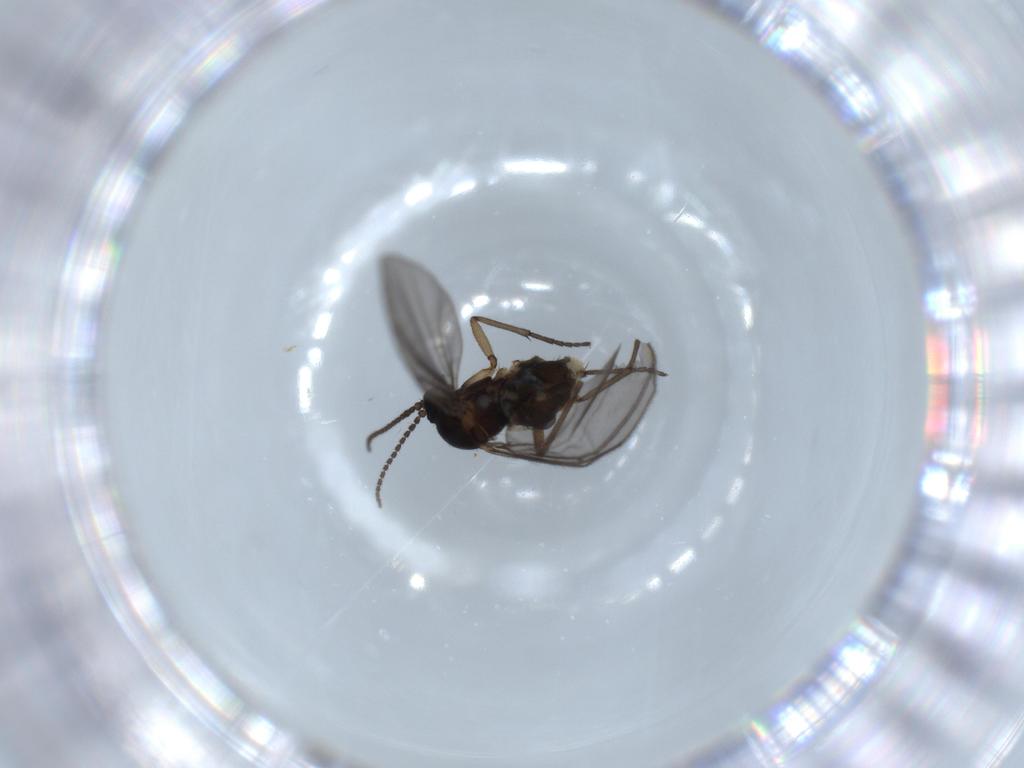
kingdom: Animalia
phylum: Arthropoda
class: Insecta
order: Diptera
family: Sciaridae
